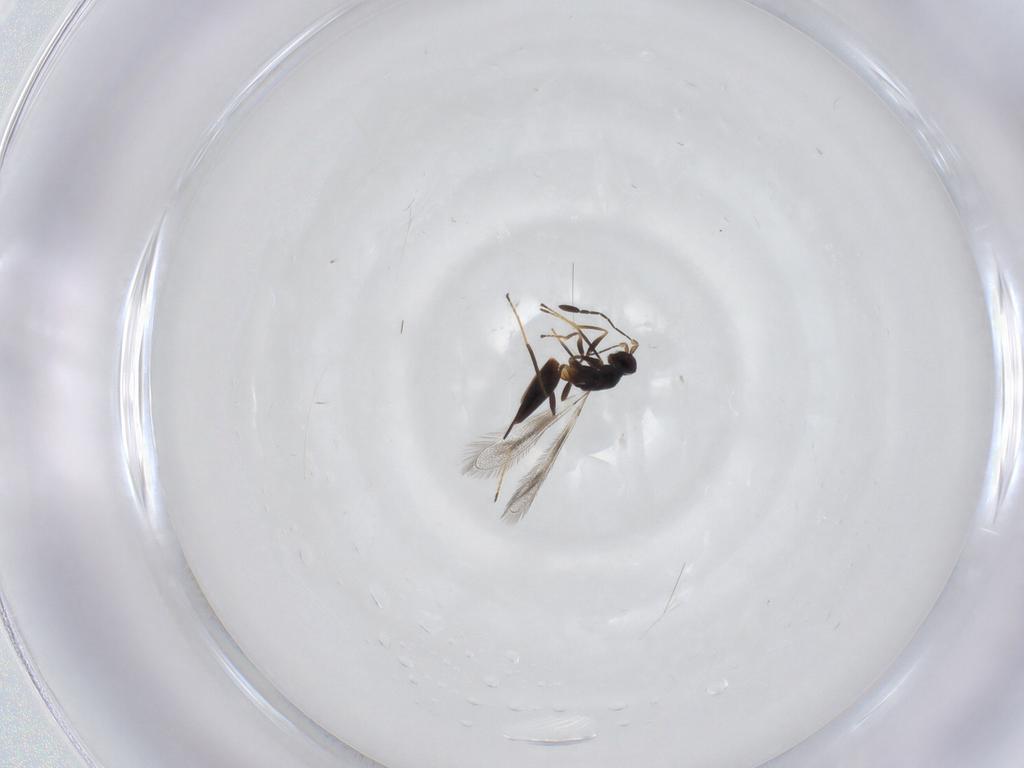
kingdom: Animalia
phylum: Arthropoda
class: Insecta
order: Hymenoptera
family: Mymaridae
